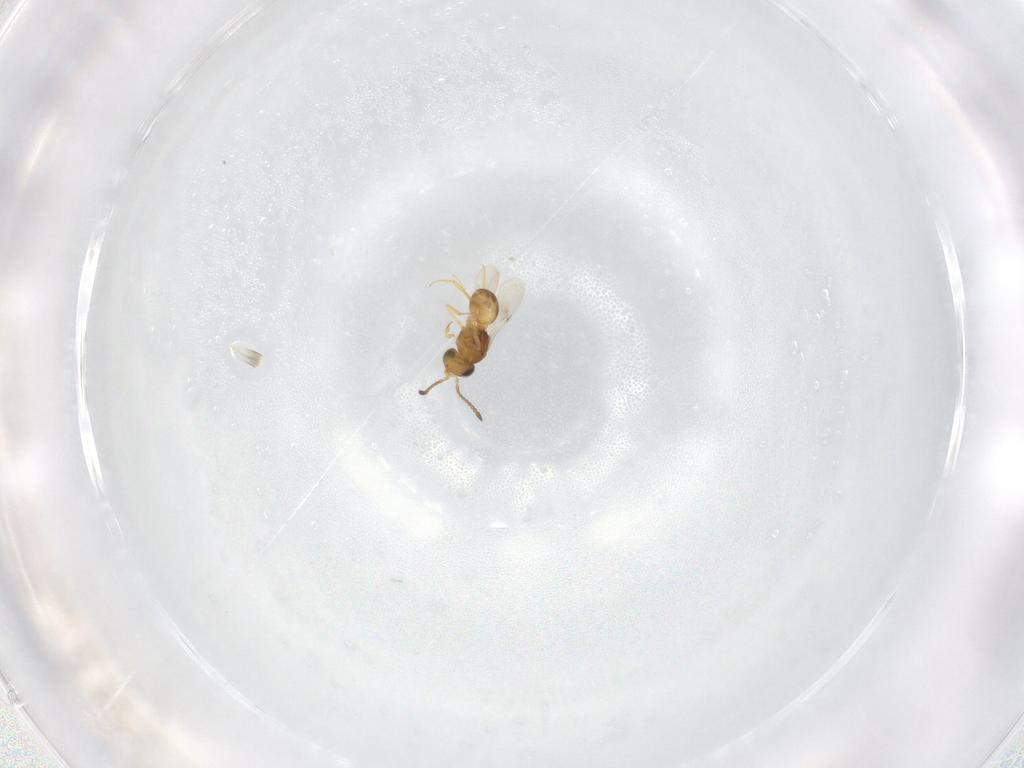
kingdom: Animalia
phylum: Arthropoda
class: Insecta
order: Hymenoptera
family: Scelionidae
